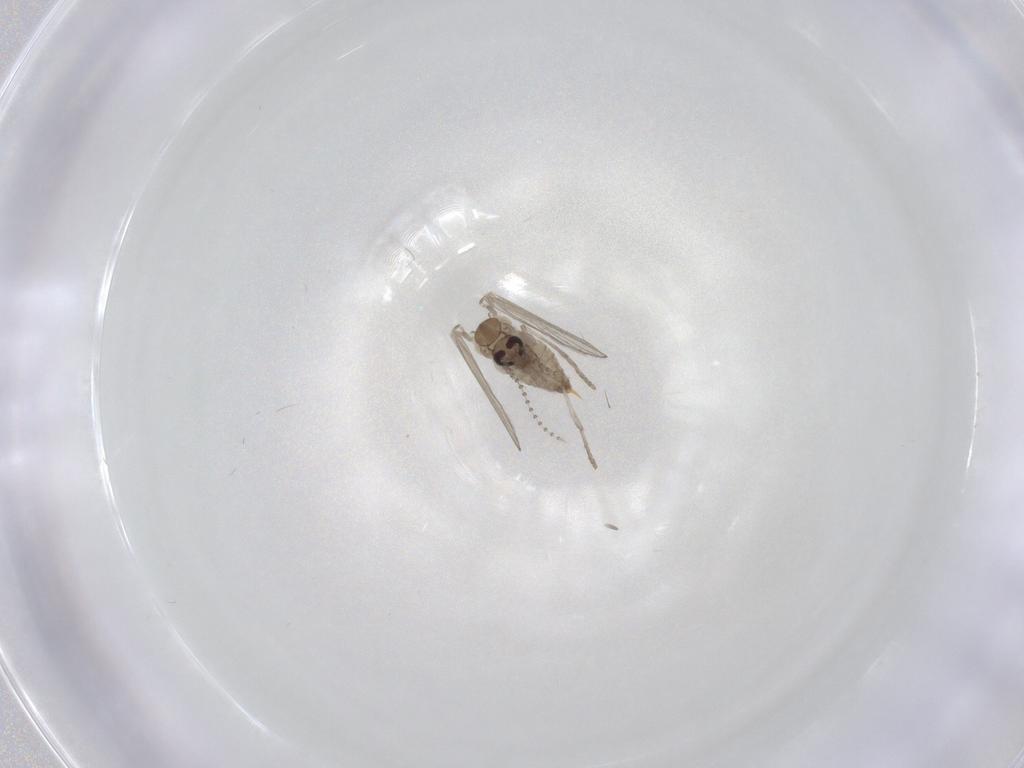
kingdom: Animalia
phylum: Arthropoda
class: Insecta
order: Diptera
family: Psychodidae
